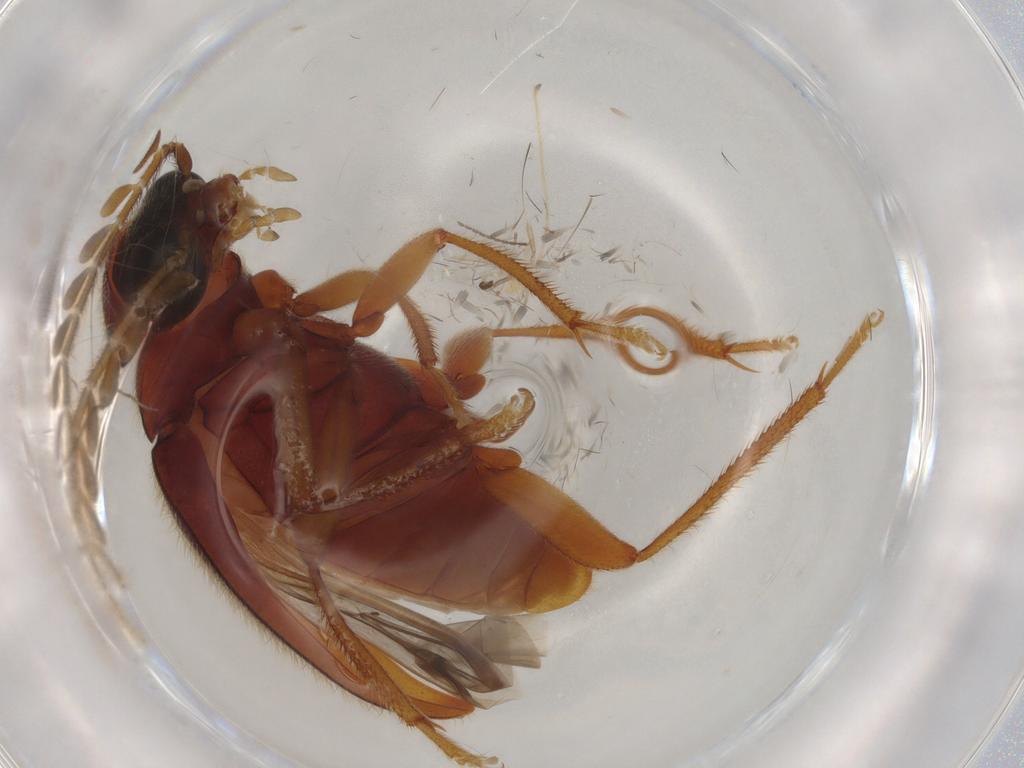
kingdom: Animalia
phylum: Arthropoda
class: Insecta
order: Coleoptera
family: Ptilodactylidae
